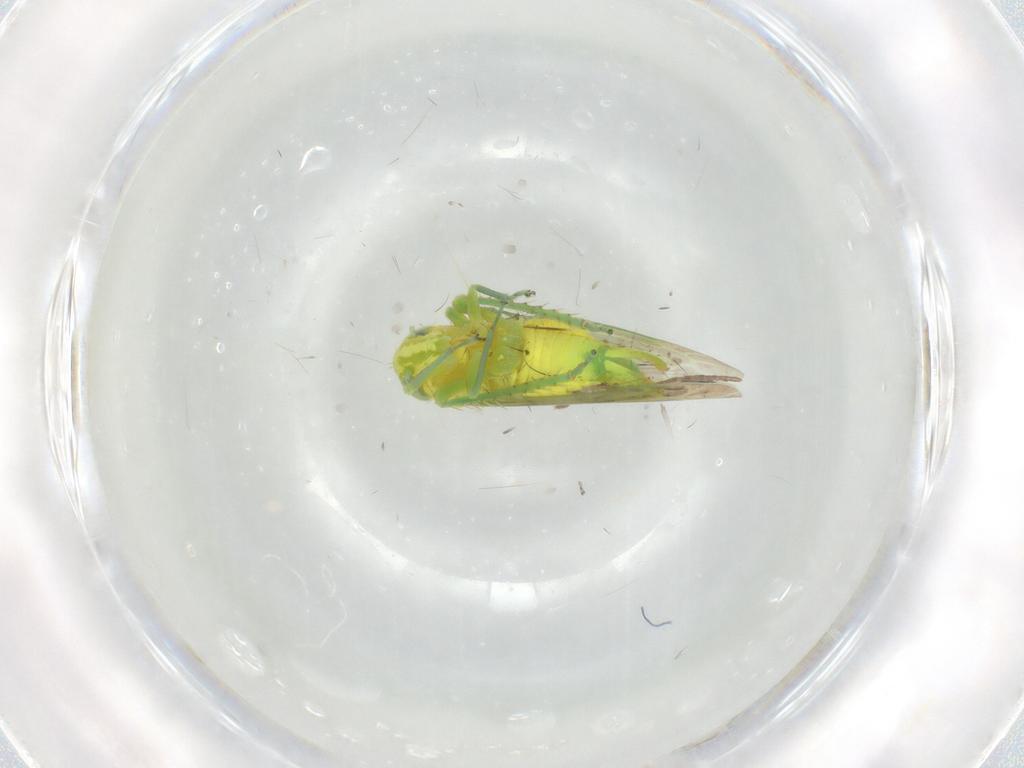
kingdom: Animalia
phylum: Arthropoda
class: Insecta
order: Hemiptera
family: Cicadellidae
